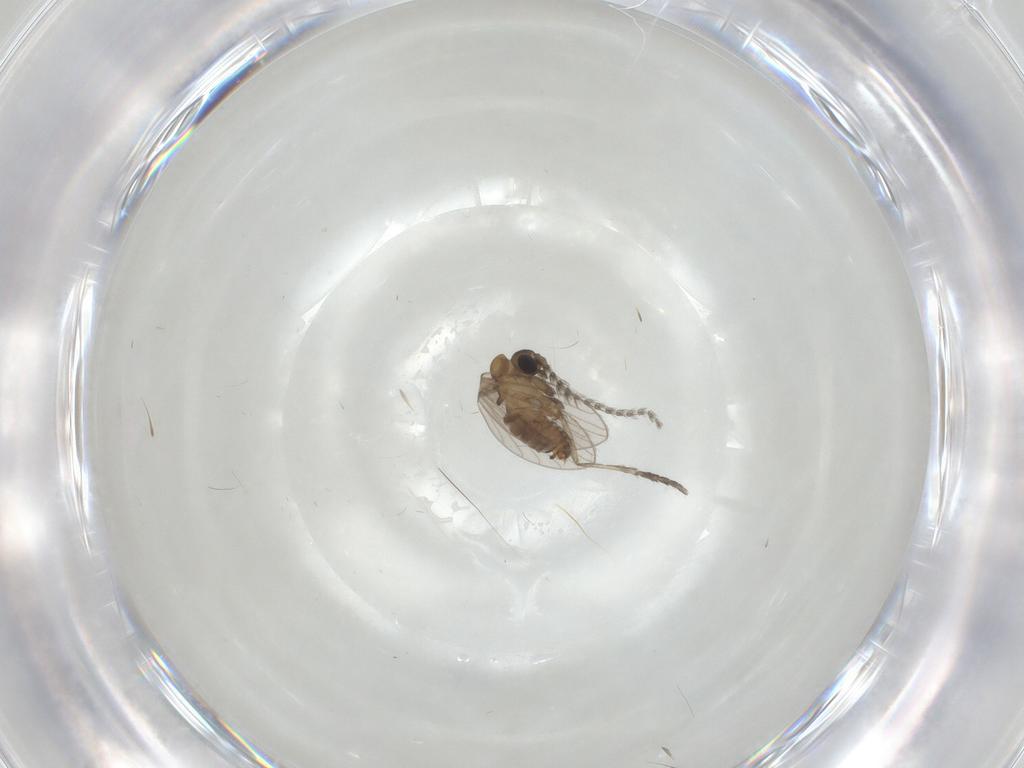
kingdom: Animalia
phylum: Arthropoda
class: Insecta
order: Diptera
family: Psychodidae
